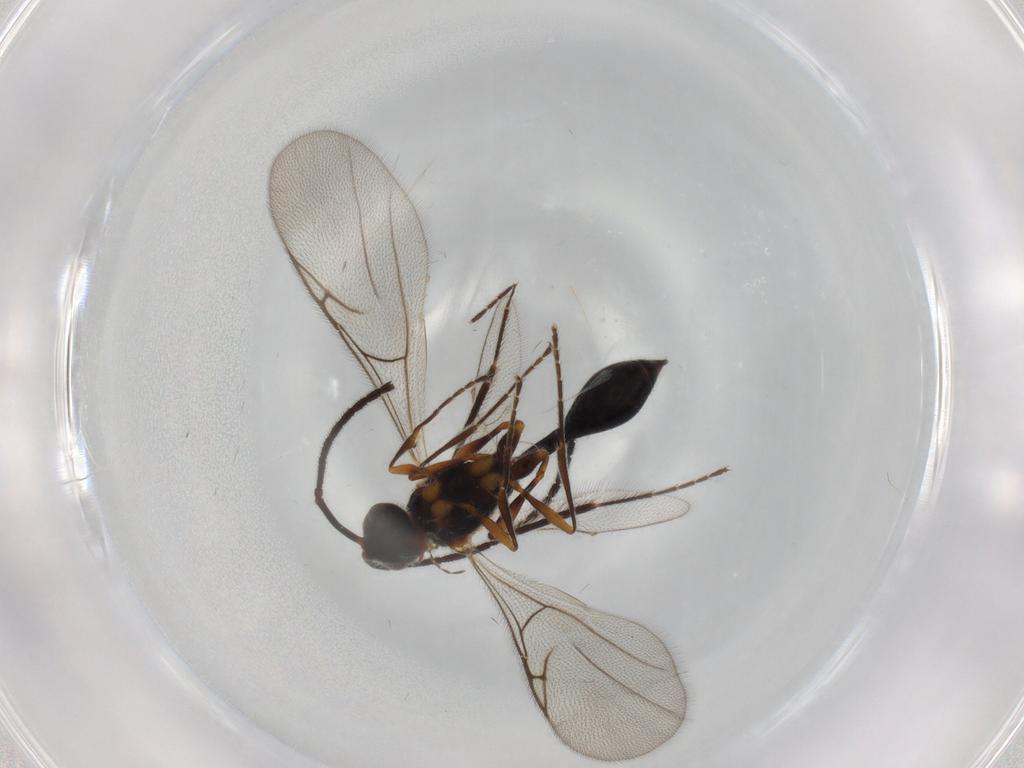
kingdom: Animalia
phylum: Arthropoda
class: Insecta
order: Hymenoptera
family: Diapriidae
